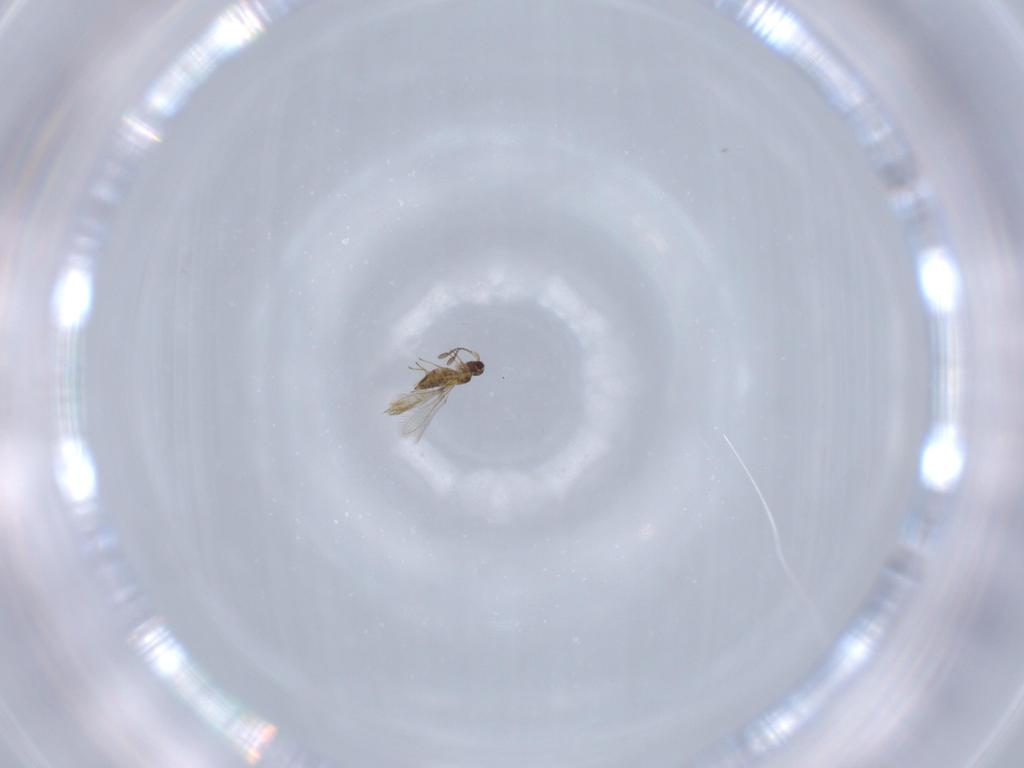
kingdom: Animalia
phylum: Arthropoda
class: Insecta
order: Hymenoptera
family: Mymaridae
